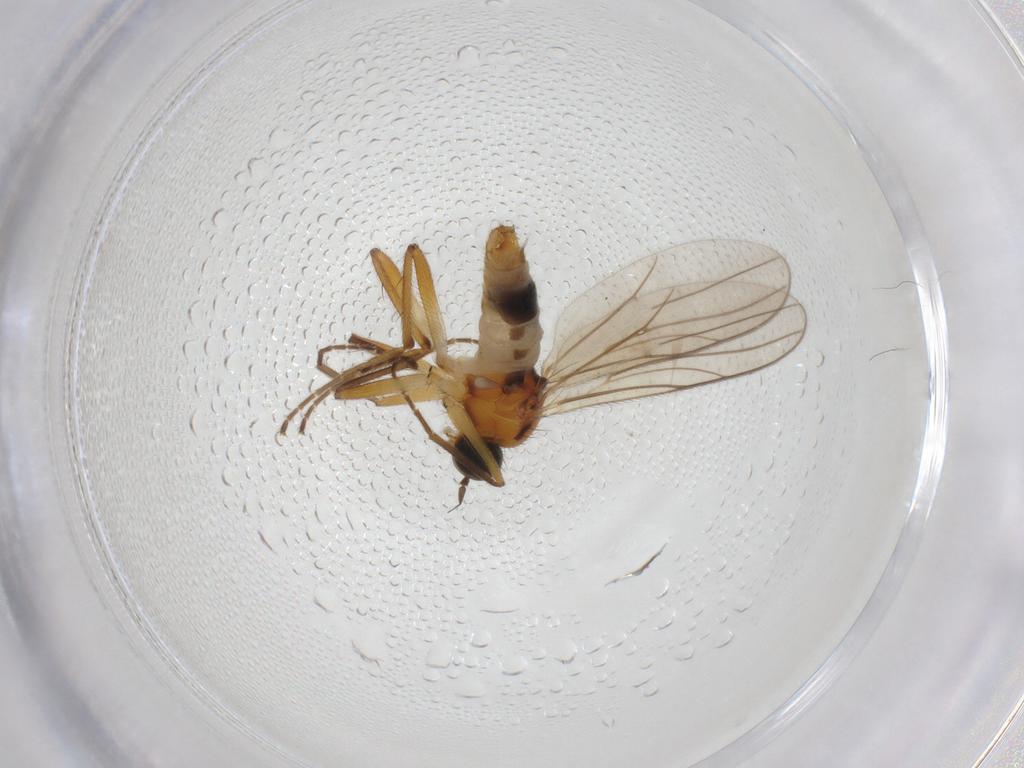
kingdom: Animalia
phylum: Arthropoda
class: Insecta
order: Diptera
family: Hybotidae
